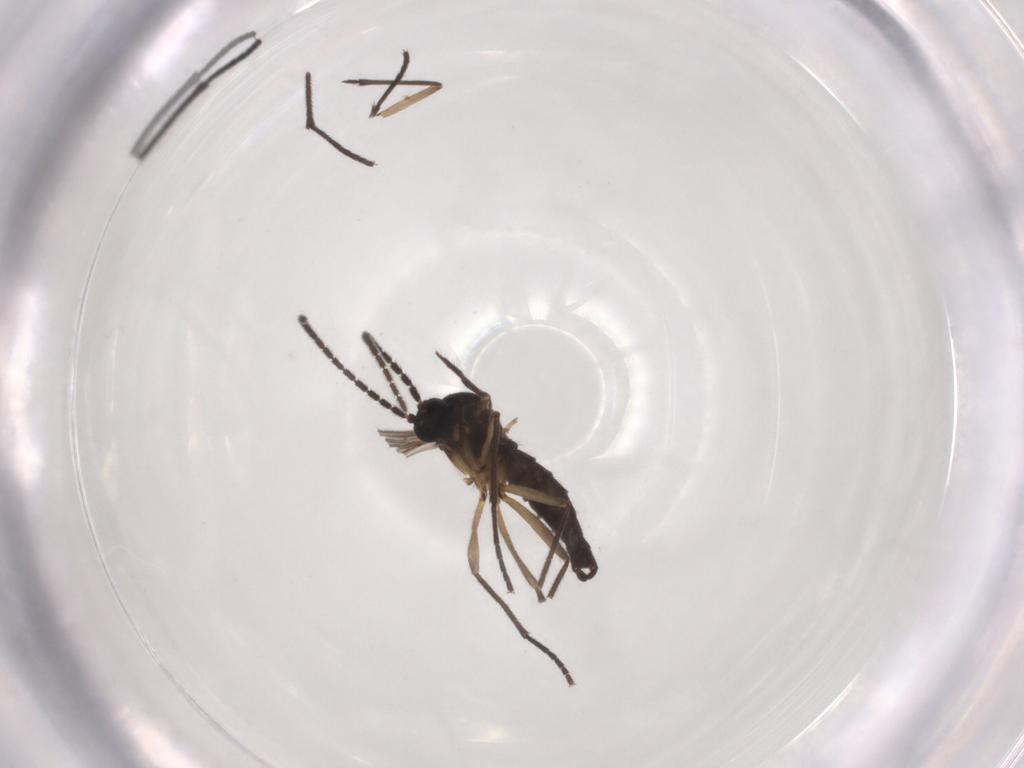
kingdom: Animalia
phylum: Arthropoda
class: Insecta
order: Diptera
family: Sciaridae
